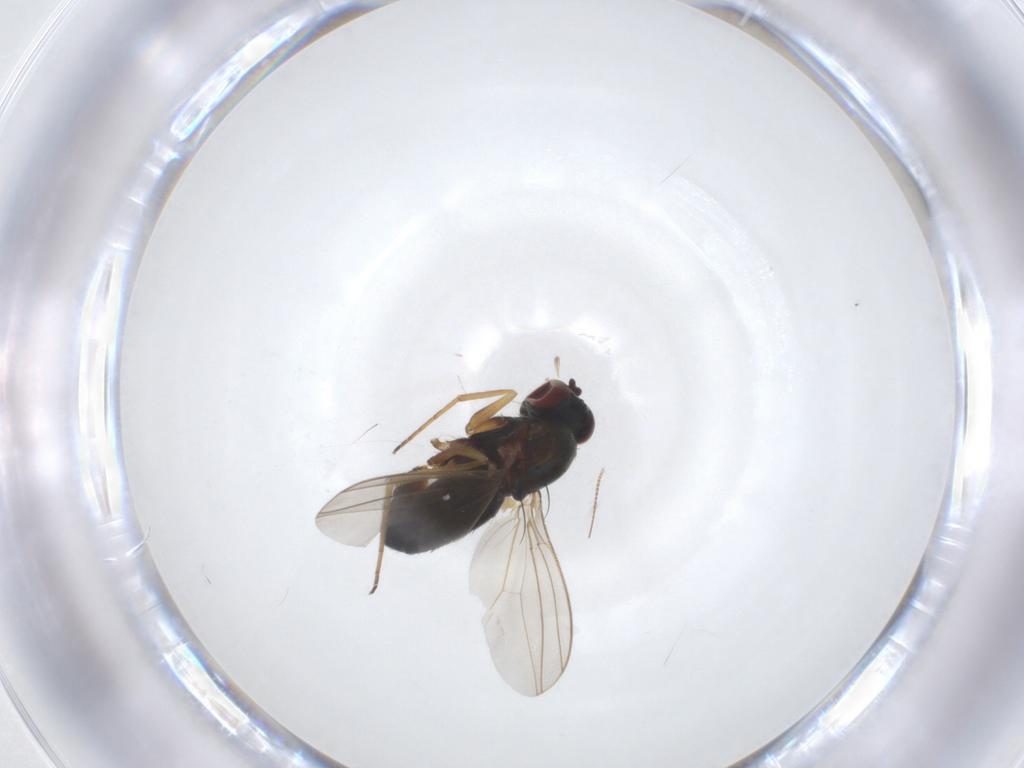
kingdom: Animalia
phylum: Arthropoda
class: Insecta
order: Diptera
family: Dolichopodidae
